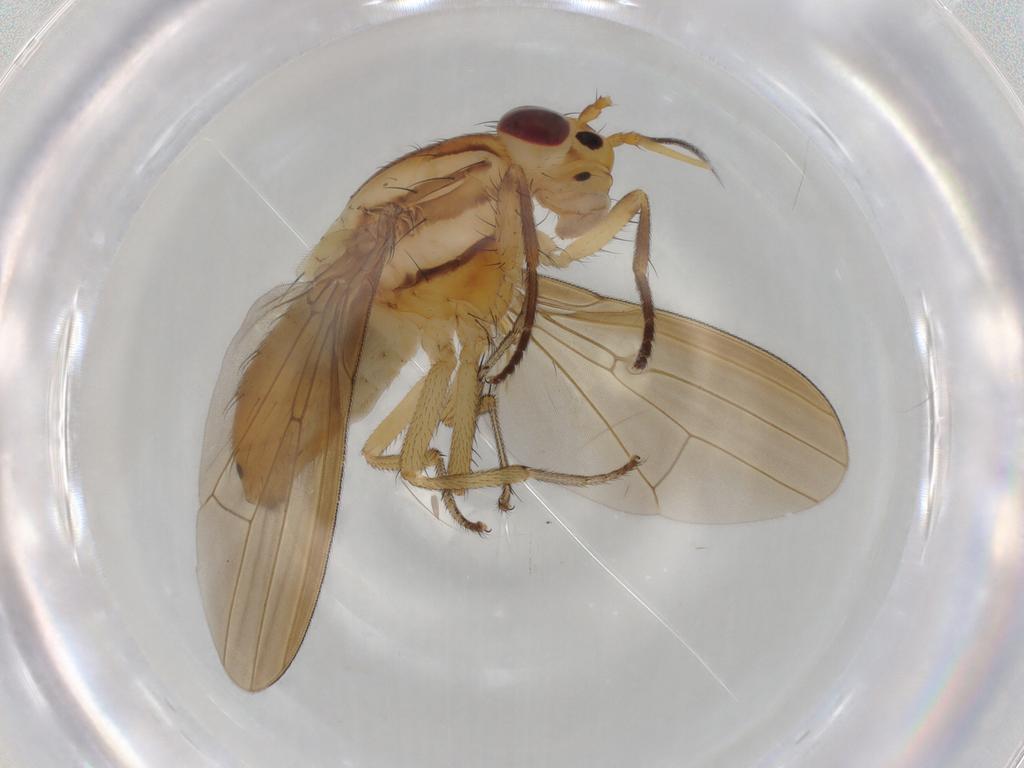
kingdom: Animalia
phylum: Arthropoda
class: Insecta
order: Diptera
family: Lauxaniidae
